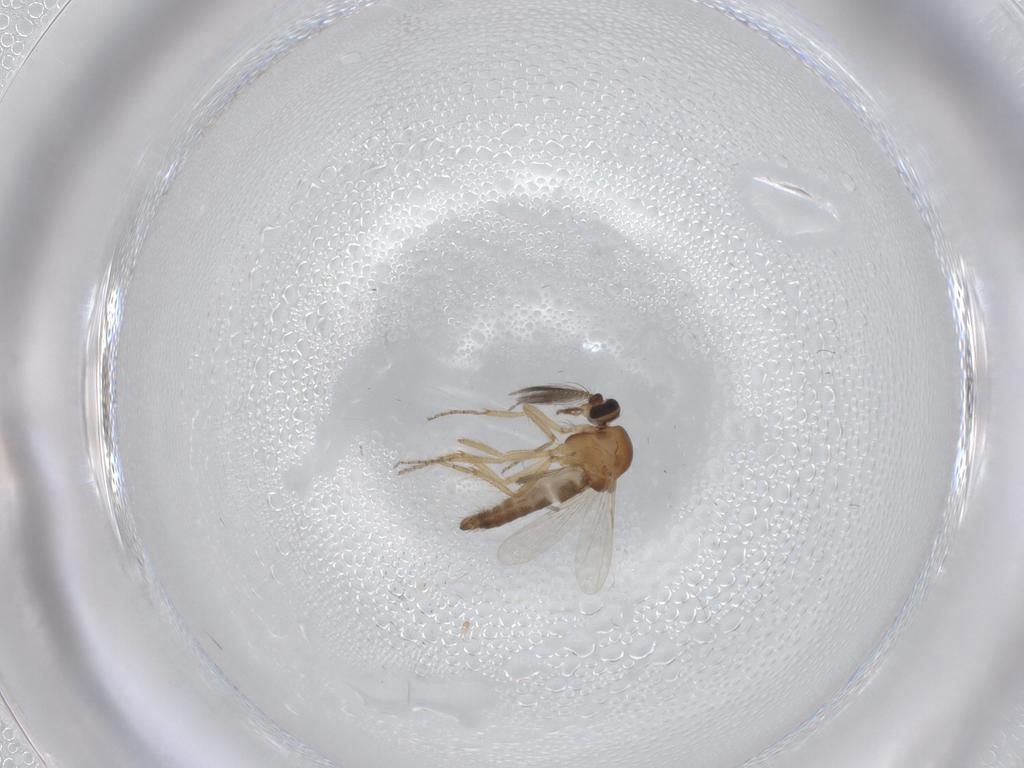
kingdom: Animalia
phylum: Arthropoda
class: Insecta
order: Diptera
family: Ceratopogonidae
